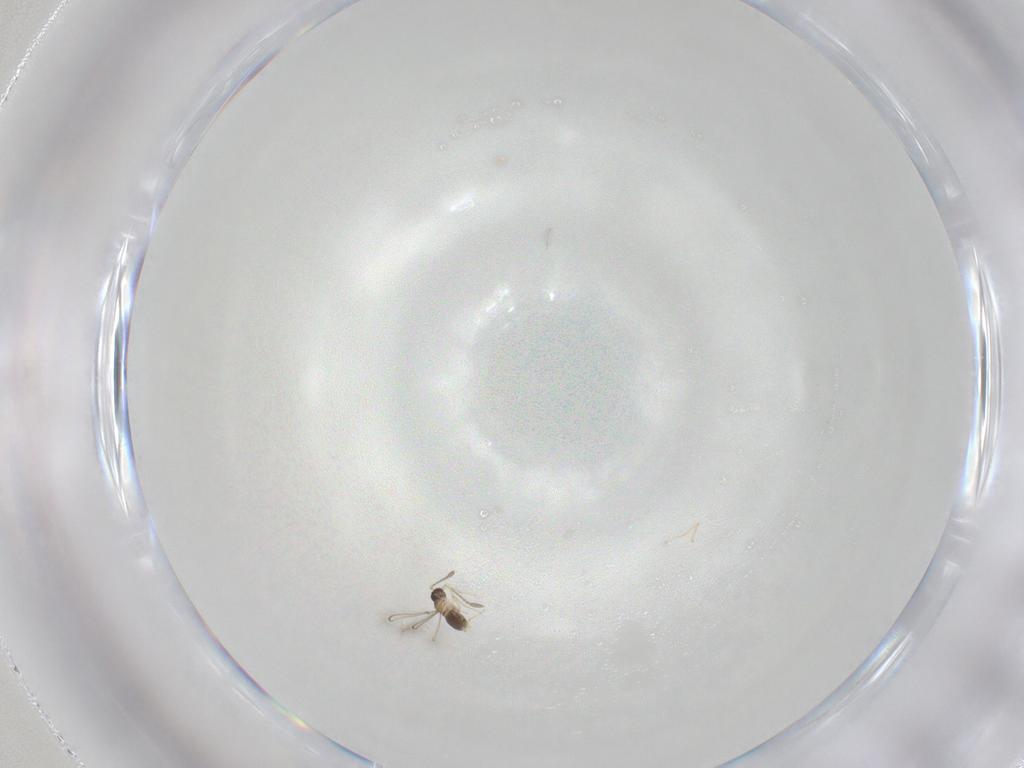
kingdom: Animalia
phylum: Arthropoda
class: Insecta
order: Hymenoptera
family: Mymaridae
